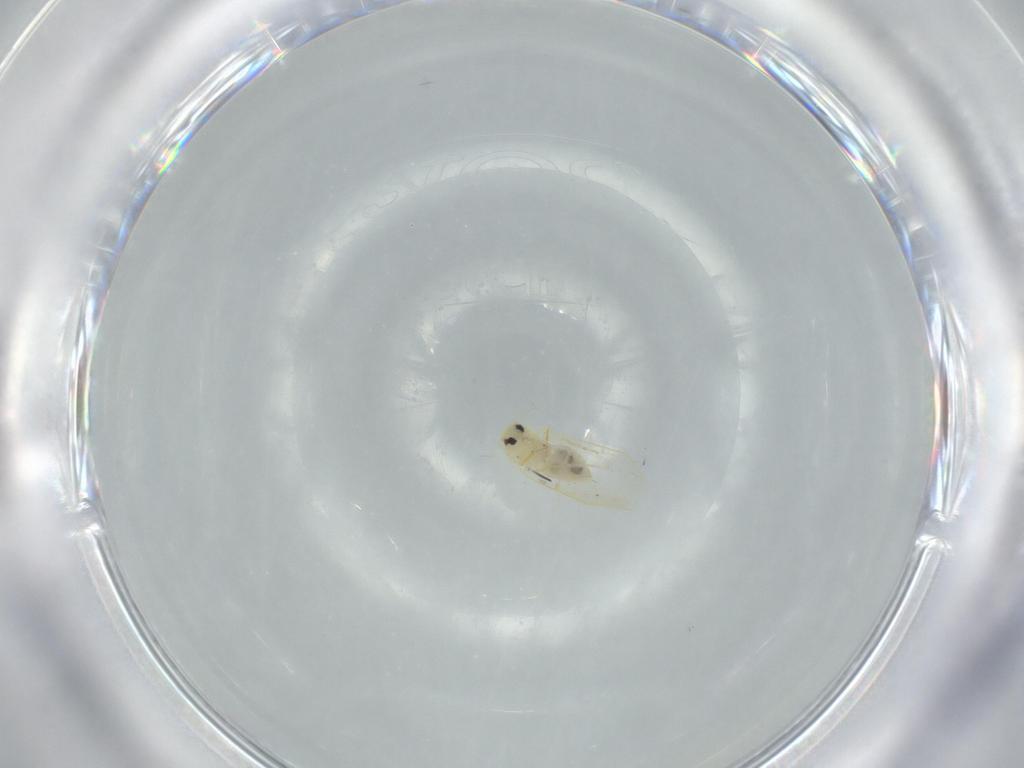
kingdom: Animalia
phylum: Arthropoda
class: Insecta
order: Hemiptera
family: Aleyrodidae
